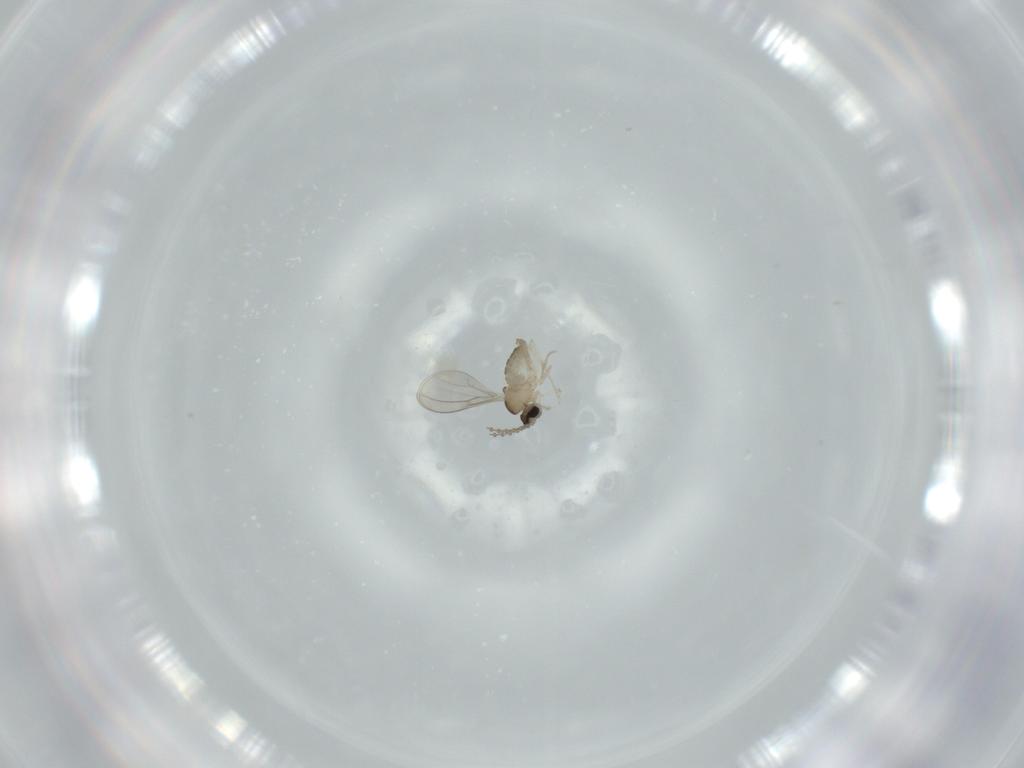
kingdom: Animalia
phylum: Arthropoda
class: Insecta
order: Diptera
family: Cecidomyiidae
